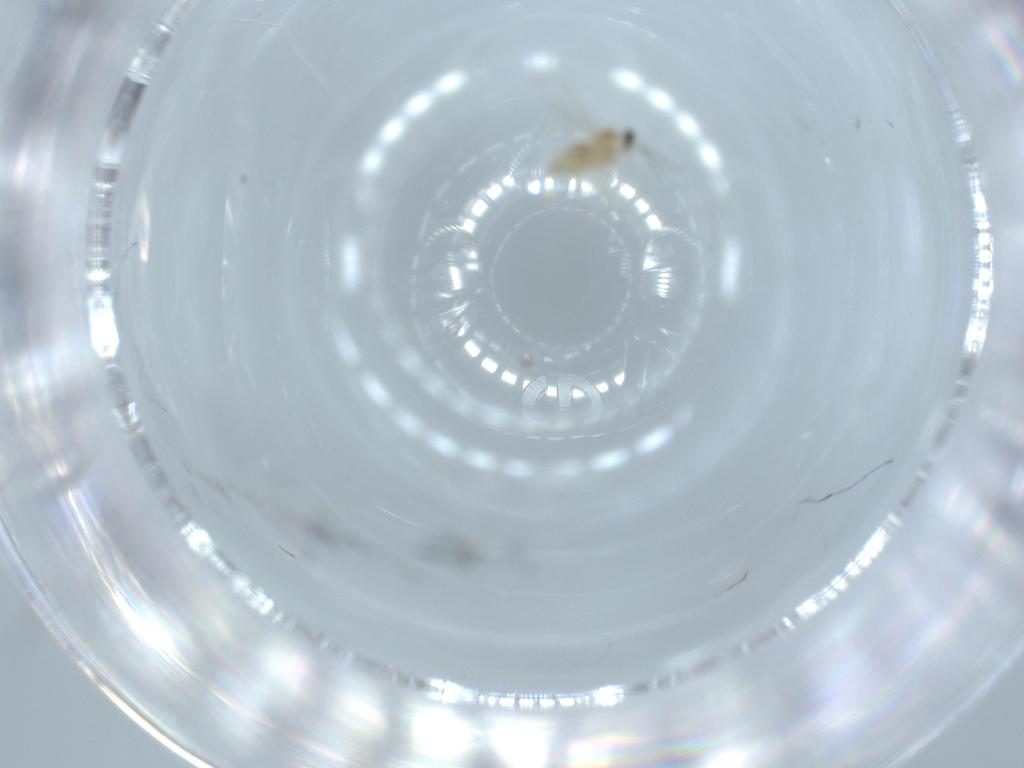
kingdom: Animalia
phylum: Arthropoda
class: Insecta
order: Diptera
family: Cecidomyiidae
